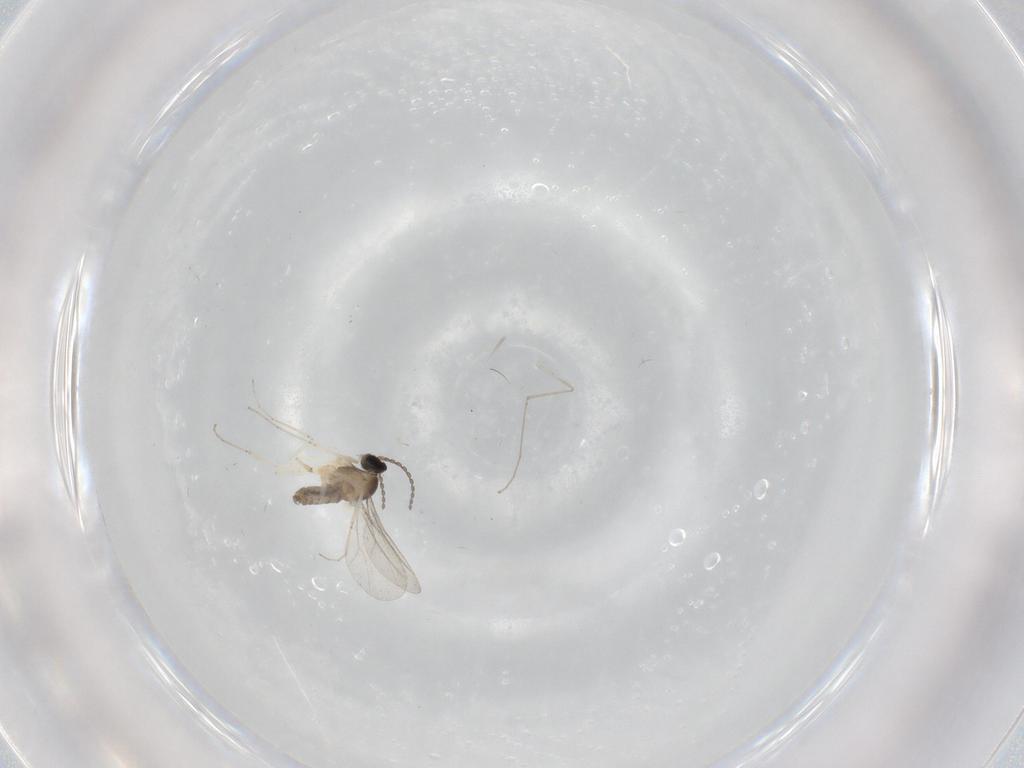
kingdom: Animalia
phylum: Arthropoda
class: Insecta
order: Diptera
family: Cecidomyiidae
